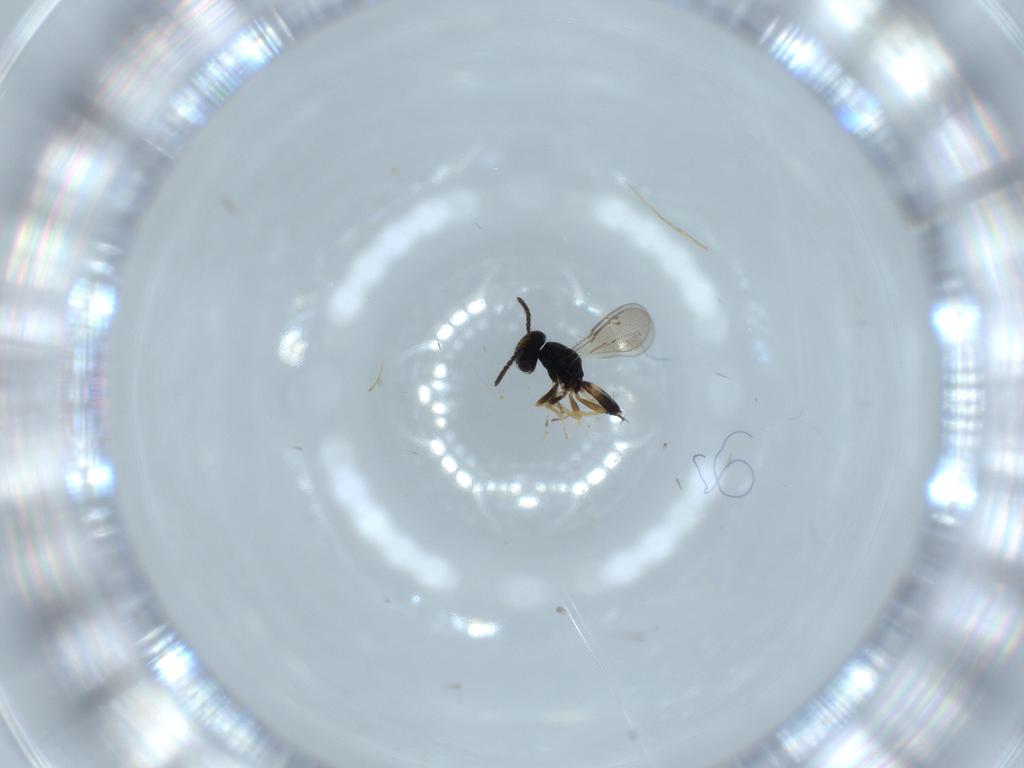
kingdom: Animalia
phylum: Arthropoda
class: Insecta
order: Hymenoptera
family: Pteromalidae
